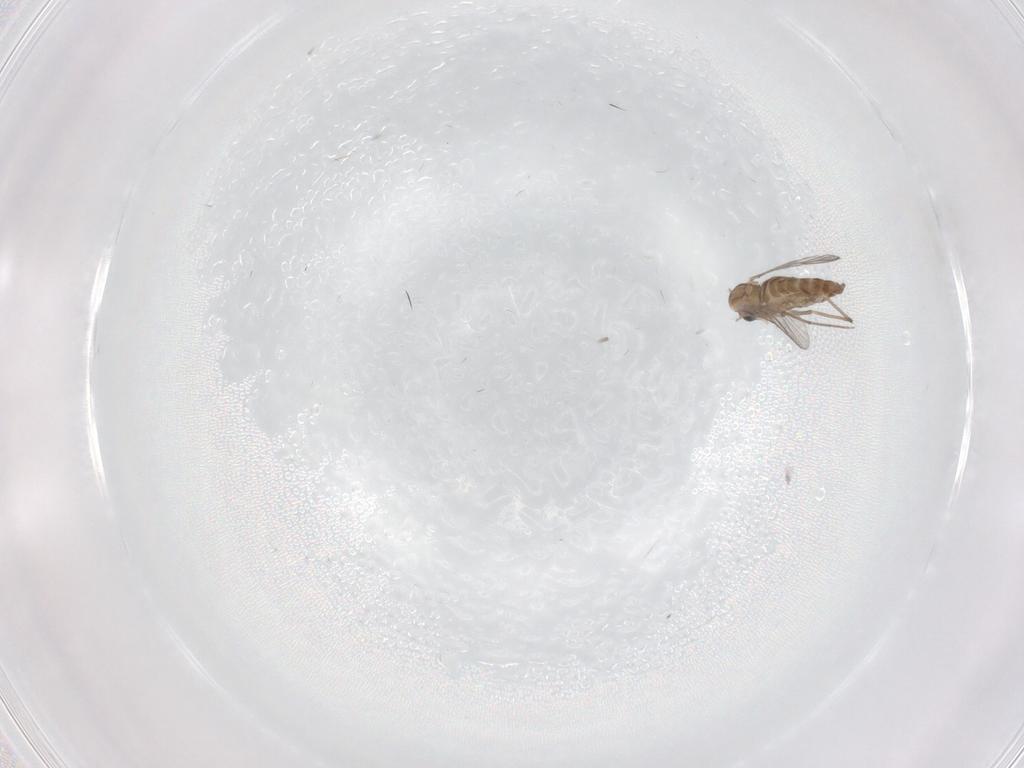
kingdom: Animalia
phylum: Arthropoda
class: Insecta
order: Diptera
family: Chironomidae
